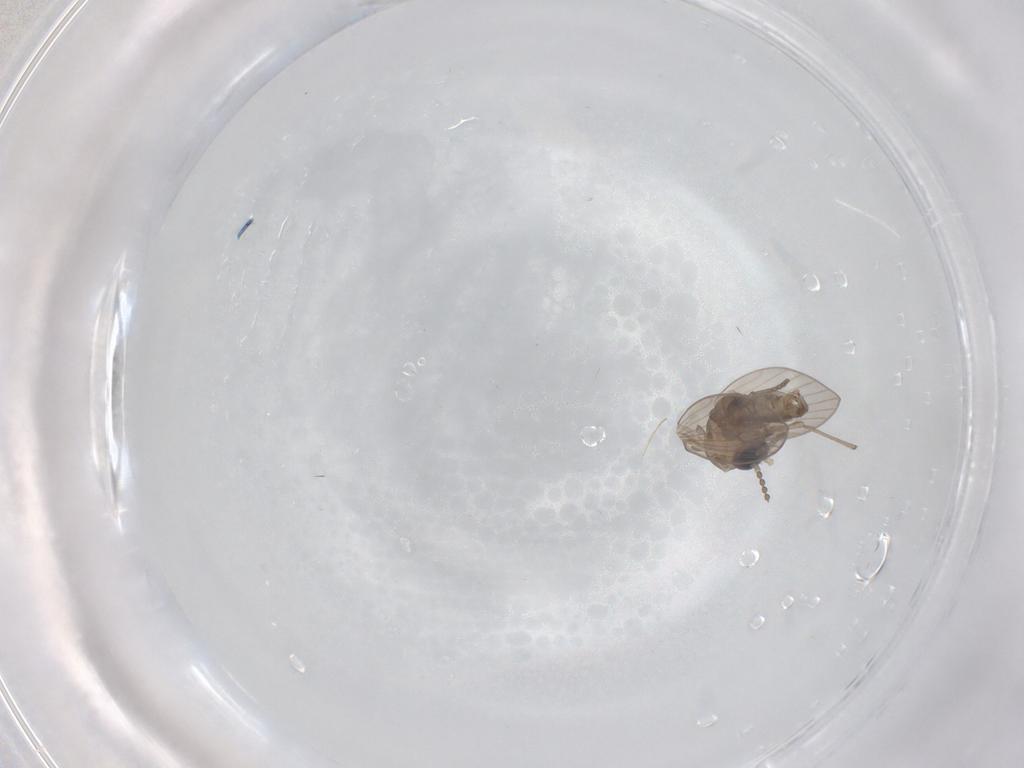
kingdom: Animalia
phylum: Arthropoda
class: Insecta
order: Diptera
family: Psychodidae
